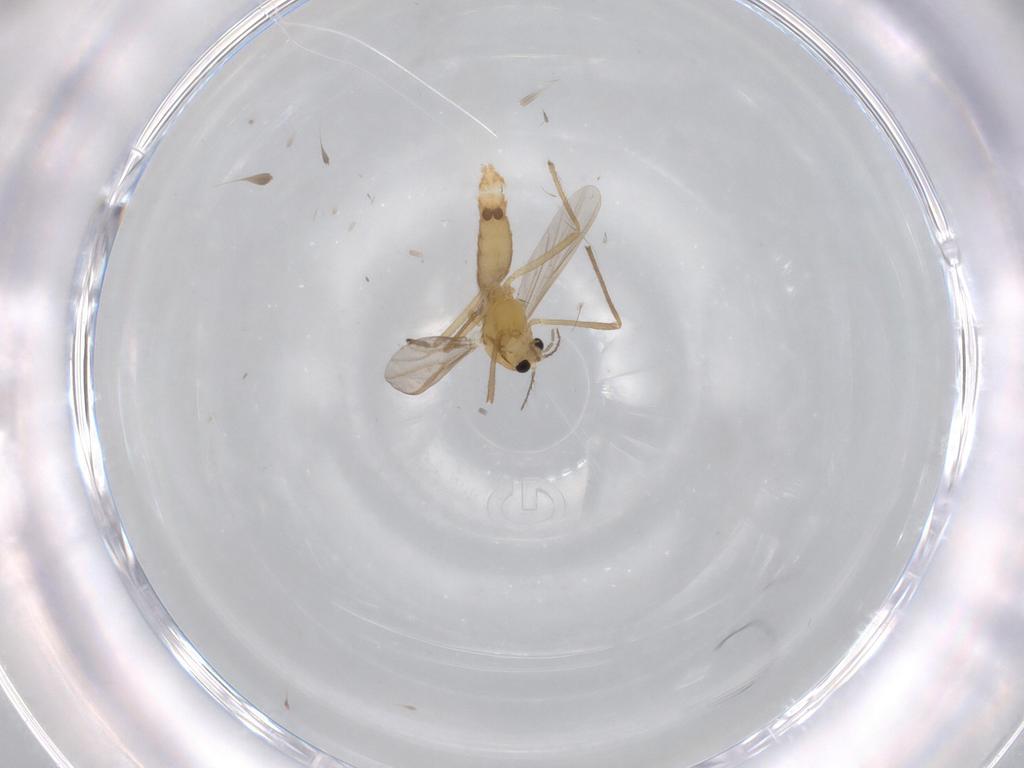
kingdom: Animalia
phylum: Arthropoda
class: Insecta
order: Diptera
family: Chironomidae
